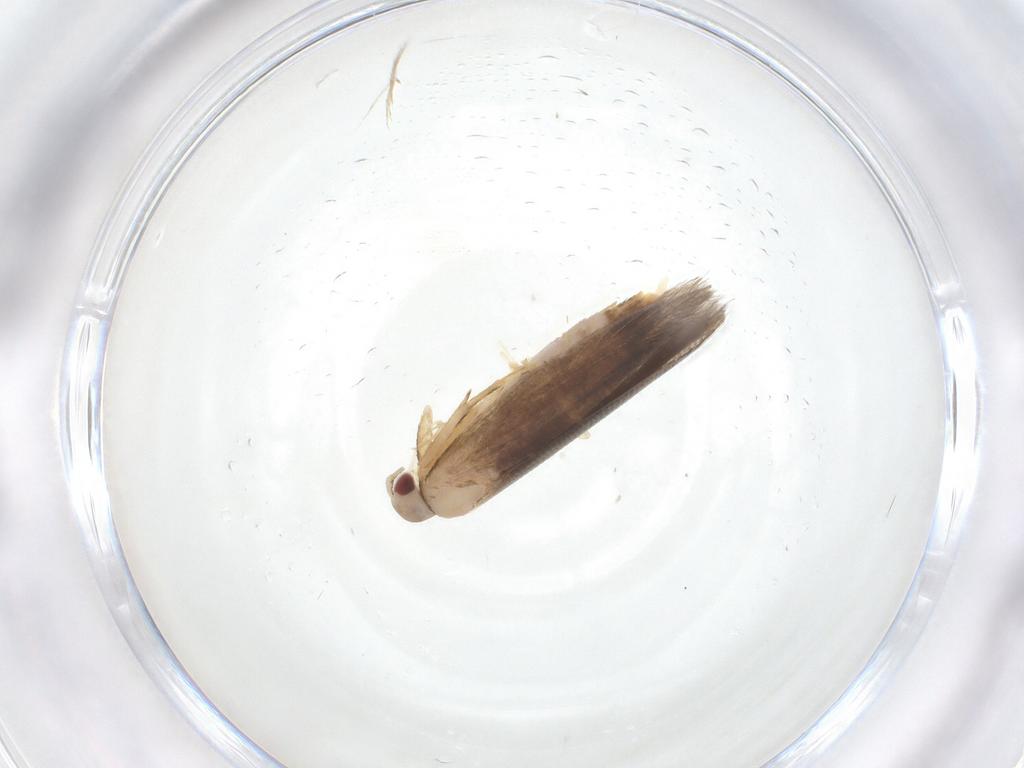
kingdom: Animalia
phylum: Arthropoda
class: Insecta
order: Lepidoptera
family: Cosmopterigidae
